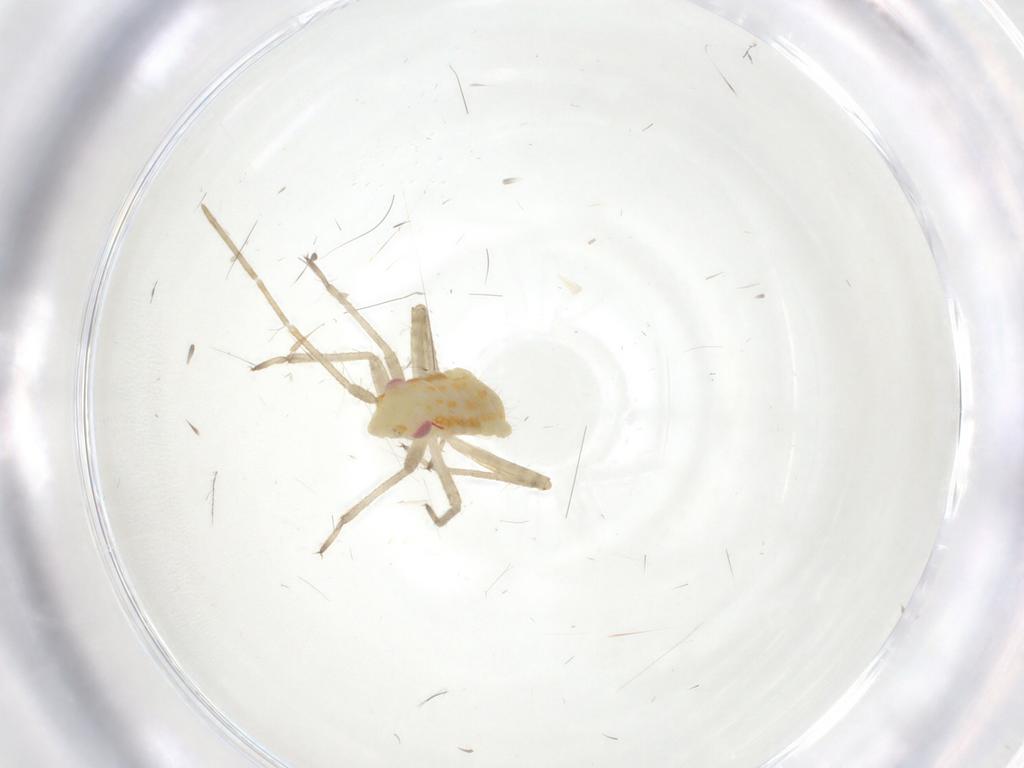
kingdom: Animalia
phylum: Arthropoda
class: Insecta
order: Hemiptera
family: Miridae
